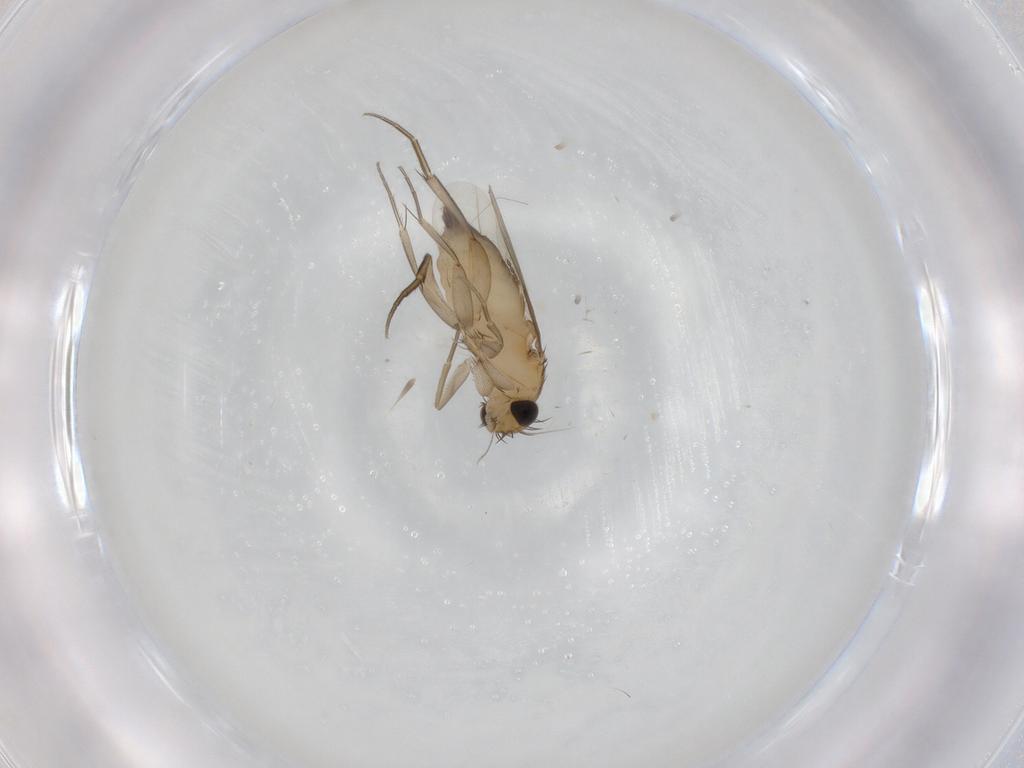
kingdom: Animalia
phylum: Arthropoda
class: Insecta
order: Diptera
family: Phoridae
